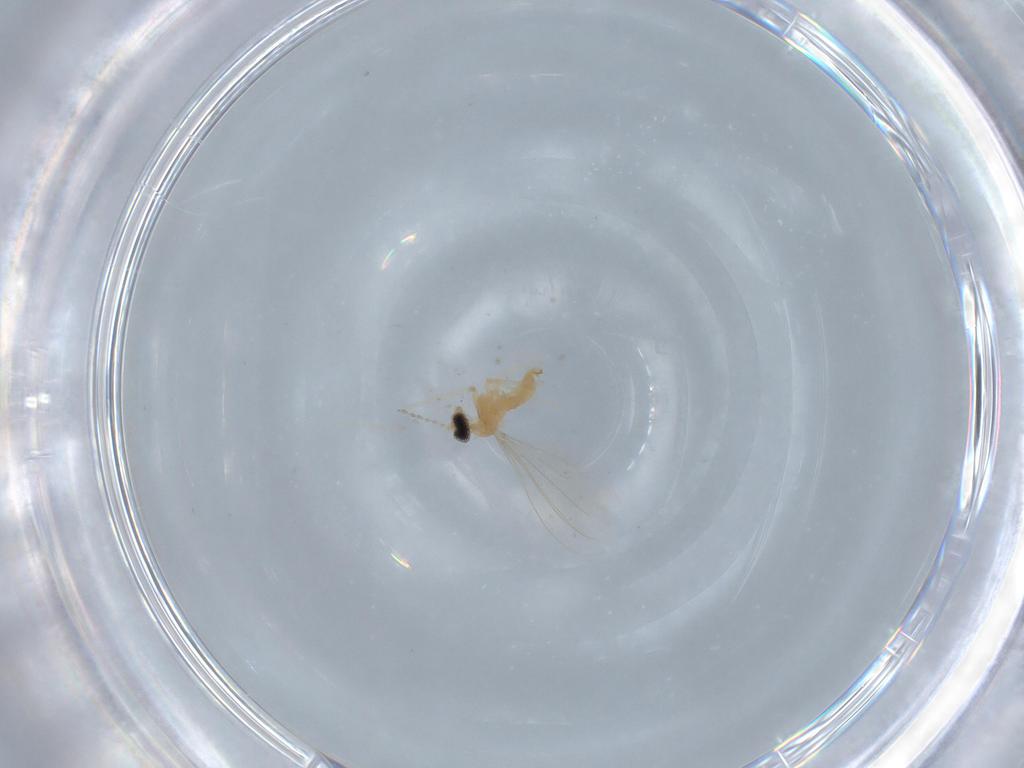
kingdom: Animalia
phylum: Arthropoda
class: Insecta
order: Diptera
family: Cecidomyiidae
